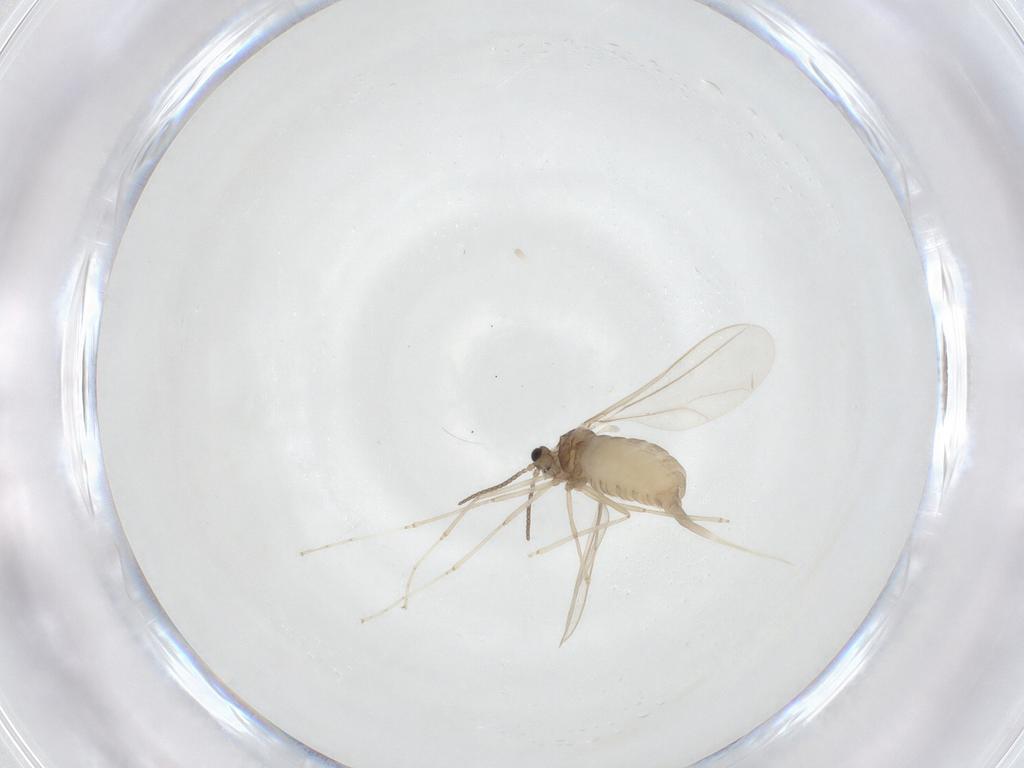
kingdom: Animalia
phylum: Arthropoda
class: Insecta
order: Diptera
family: Cecidomyiidae
